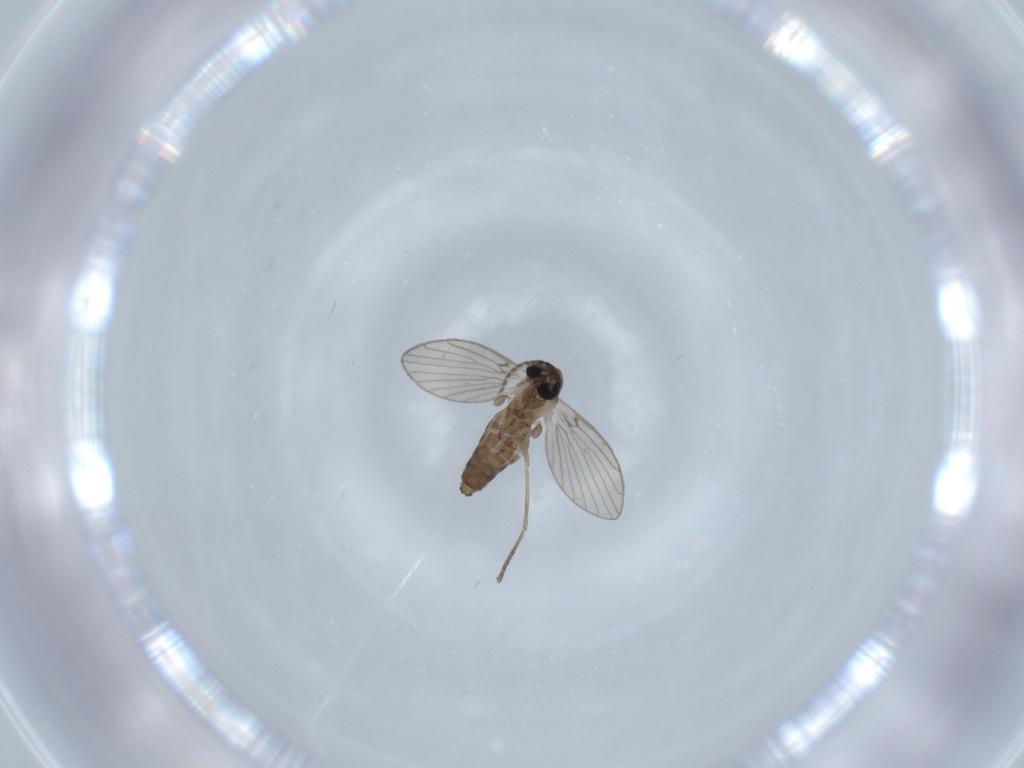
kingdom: Animalia
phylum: Arthropoda
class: Insecta
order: Diptera
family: Psychodidae
